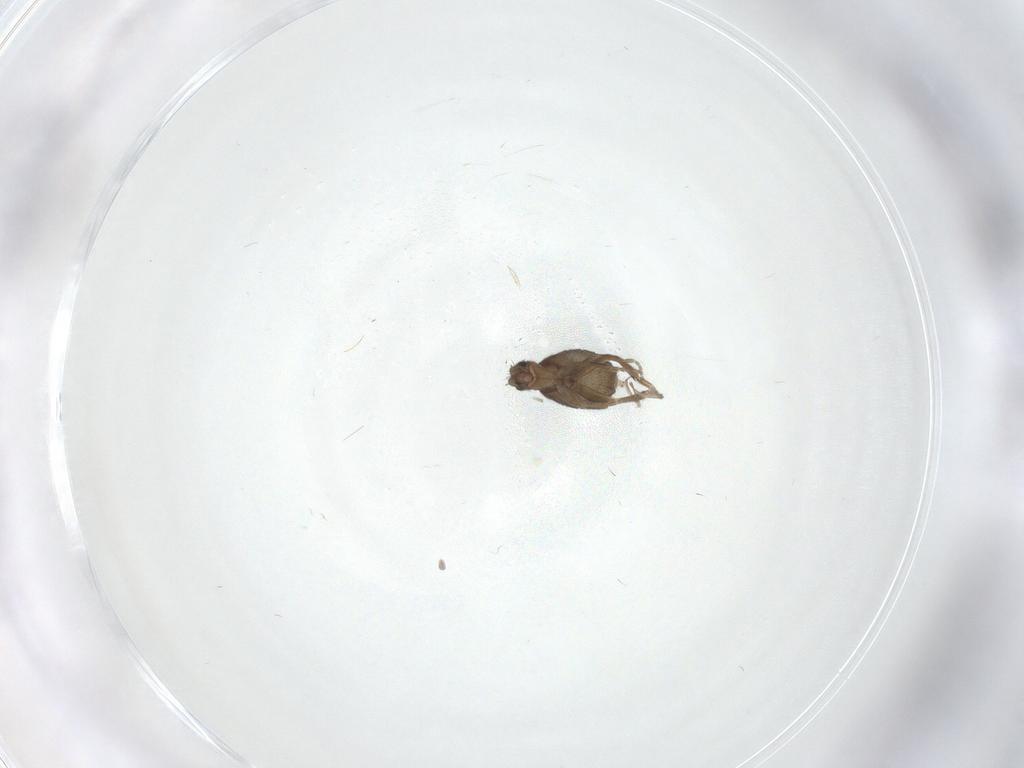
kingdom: Animalia
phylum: Arthropoda
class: Insecta
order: Diptera
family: Cecidomyiidae
